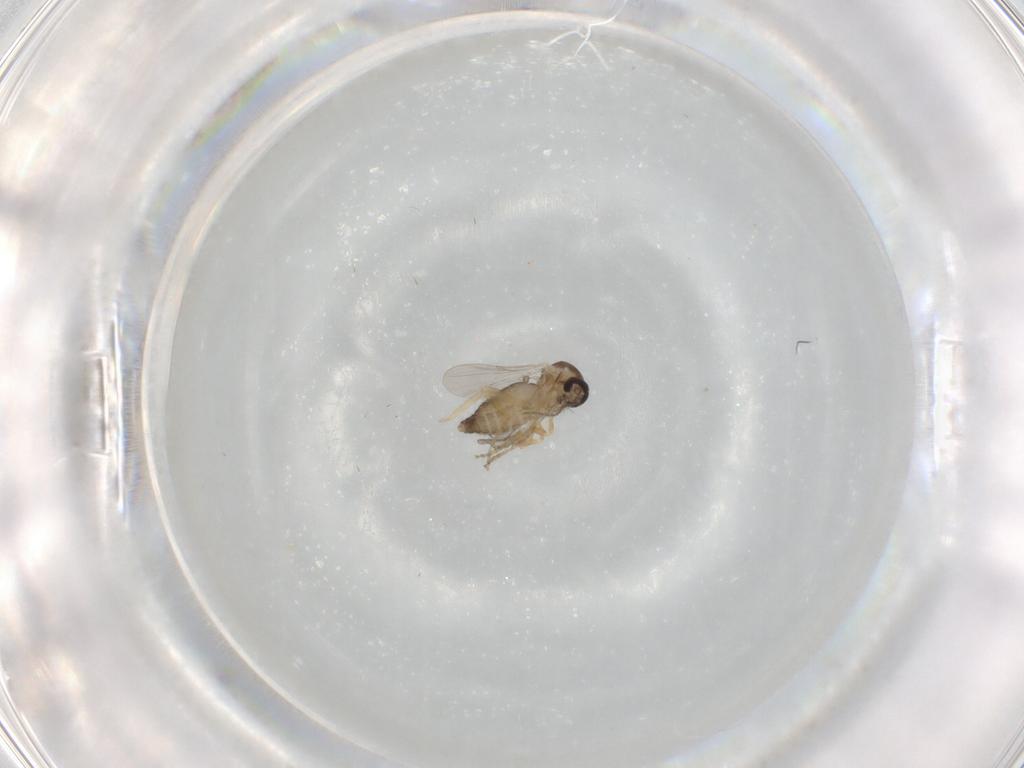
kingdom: Animalia
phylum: Arthropoda
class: Insecta
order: Diptera
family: Ceratopogonidae
